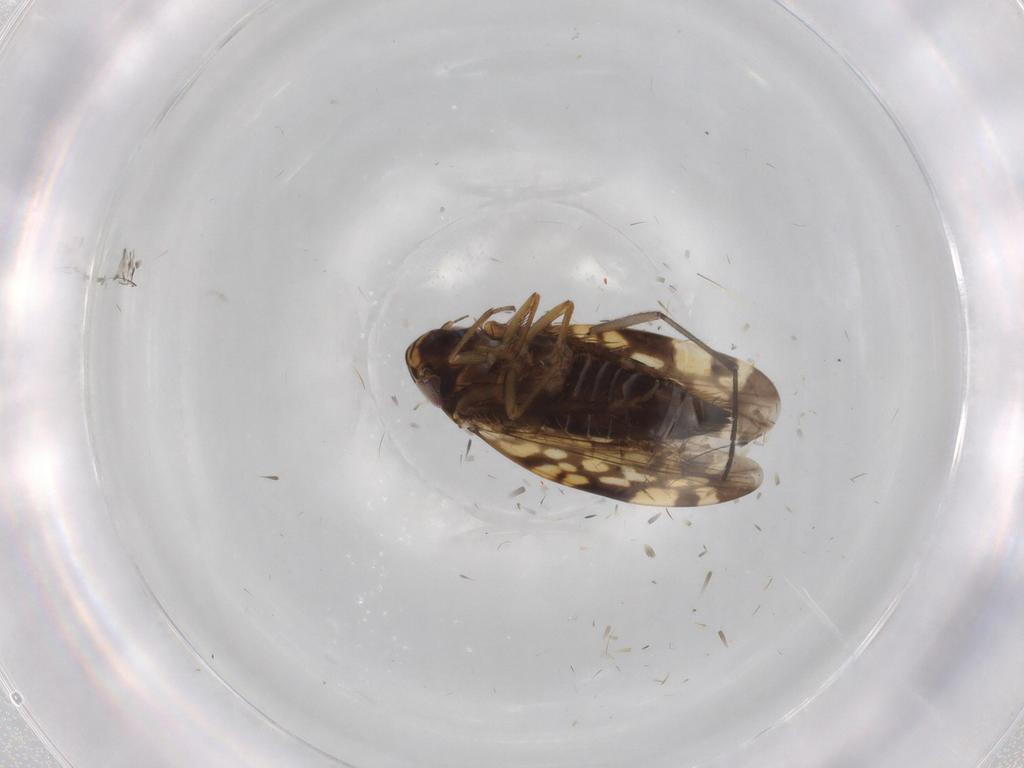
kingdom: Animalia
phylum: Arthropoda
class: Insecta
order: Hemiptera
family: Cicadellidae
